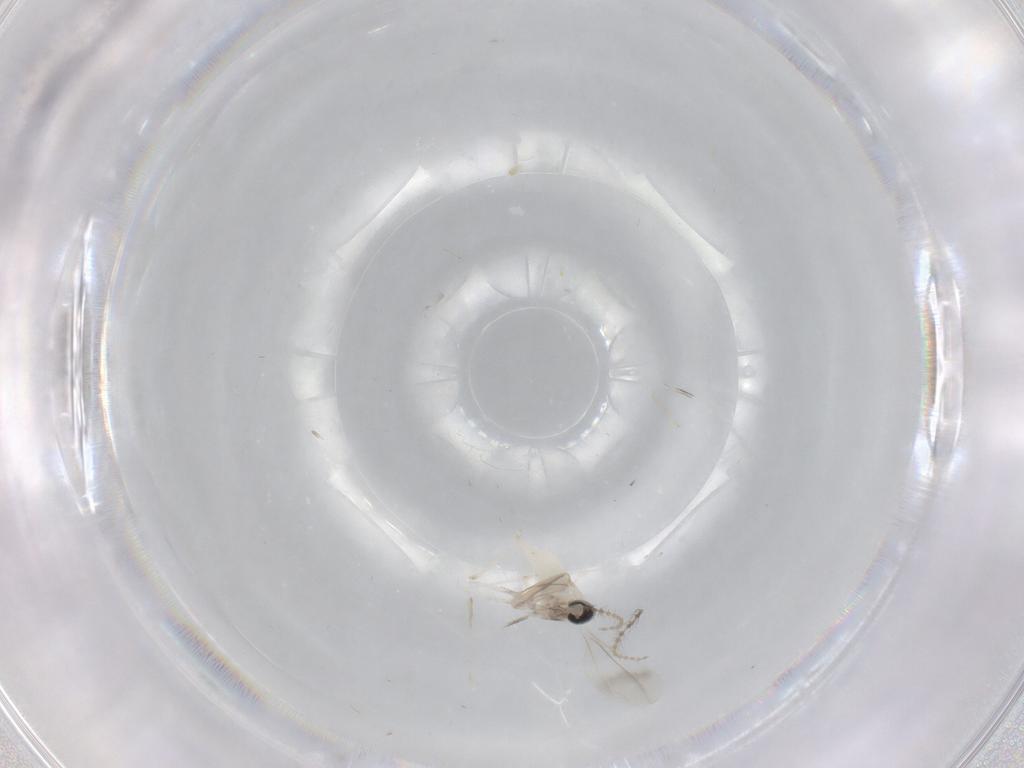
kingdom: Animalia
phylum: Arthropoda
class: Insecta
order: Diptera
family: Cecidomyiidae
